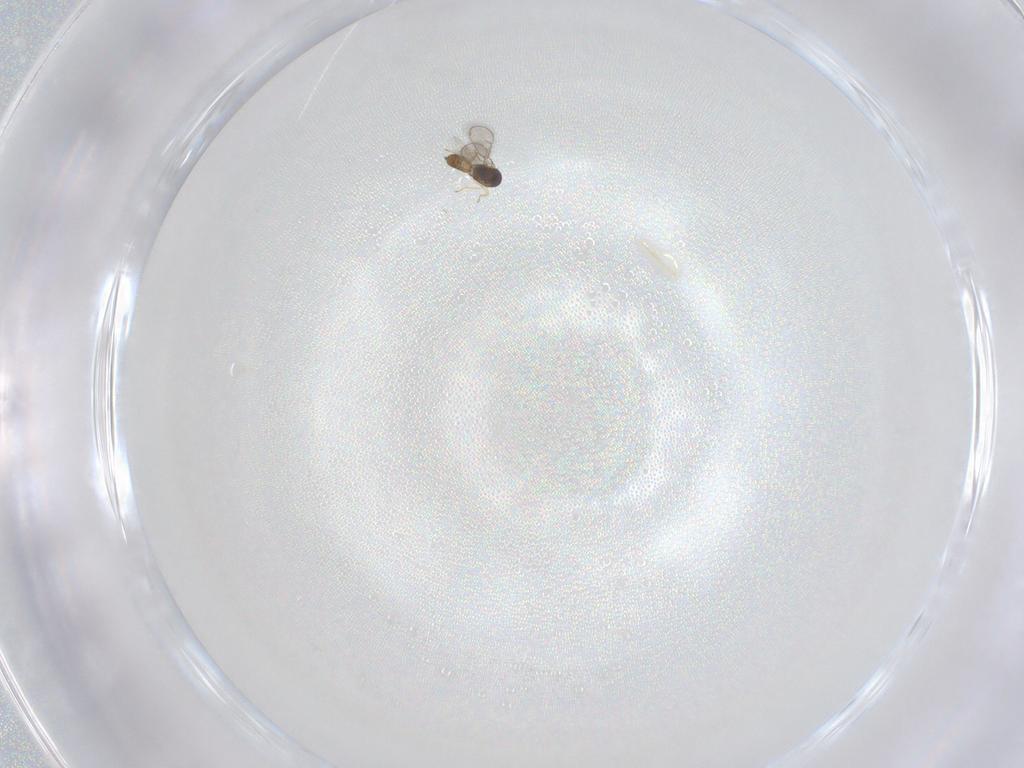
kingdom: Animalia
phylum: Arthropoda
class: Insecta
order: Hymenoptera
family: Eulophidae
